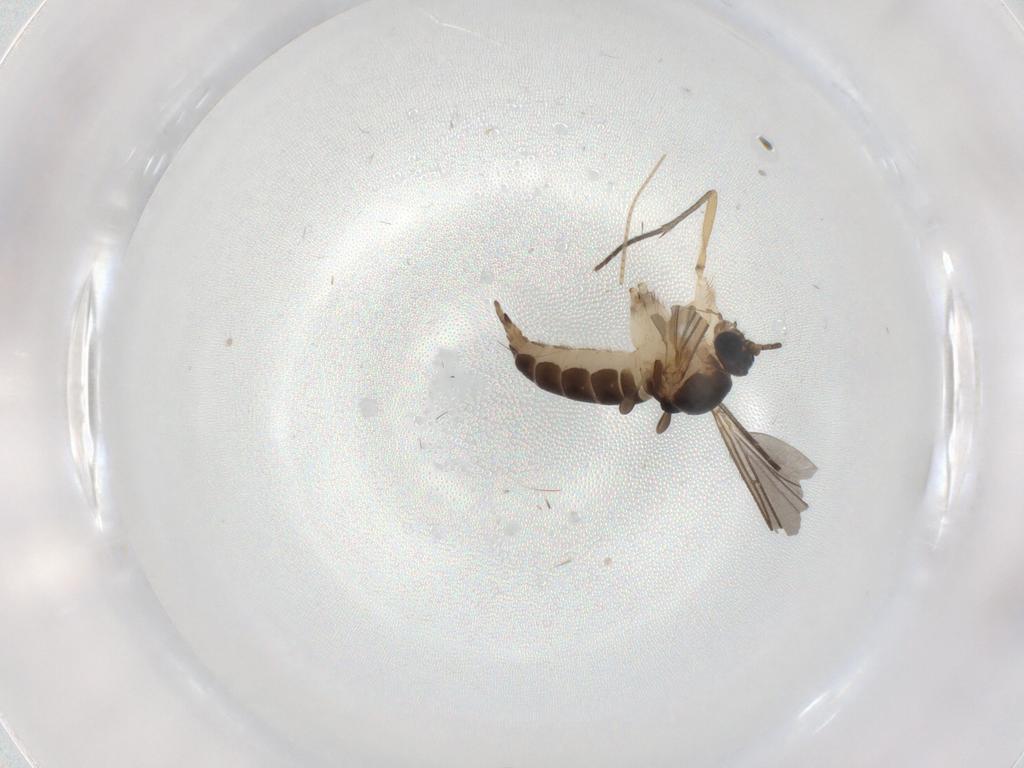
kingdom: Animalia
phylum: Arthropoda
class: Insecta
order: Diptera
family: Sciaridae
